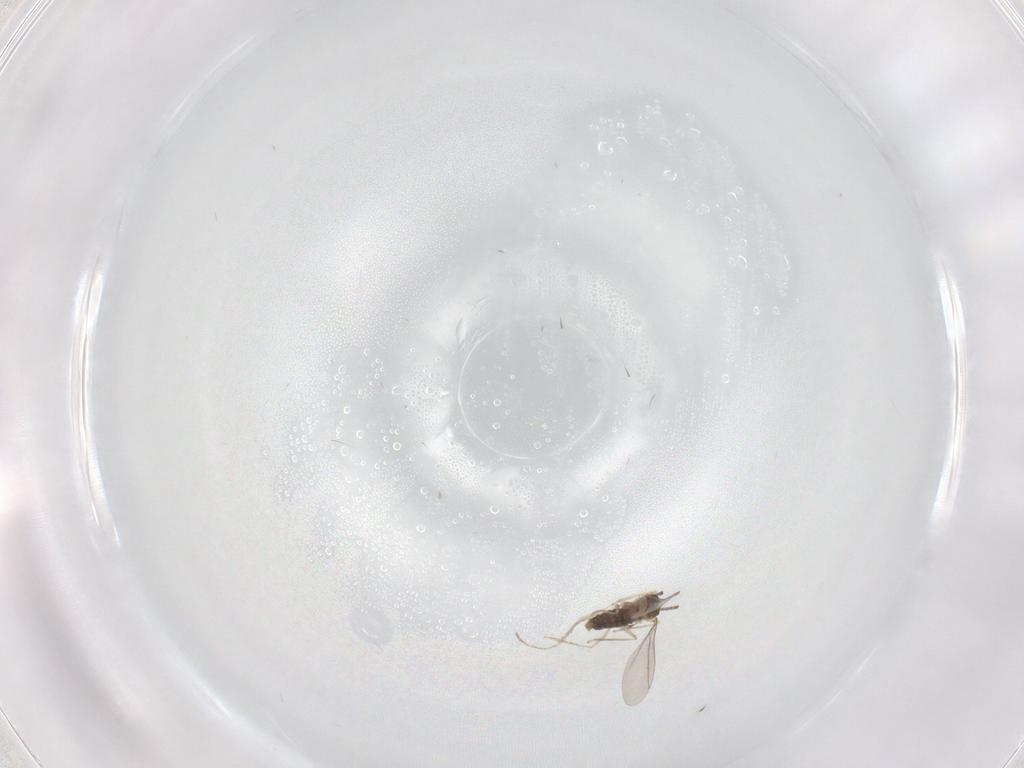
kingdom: Animalia
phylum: Arthropoda
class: Insecta
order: Diptera
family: Cecidomyiidae
